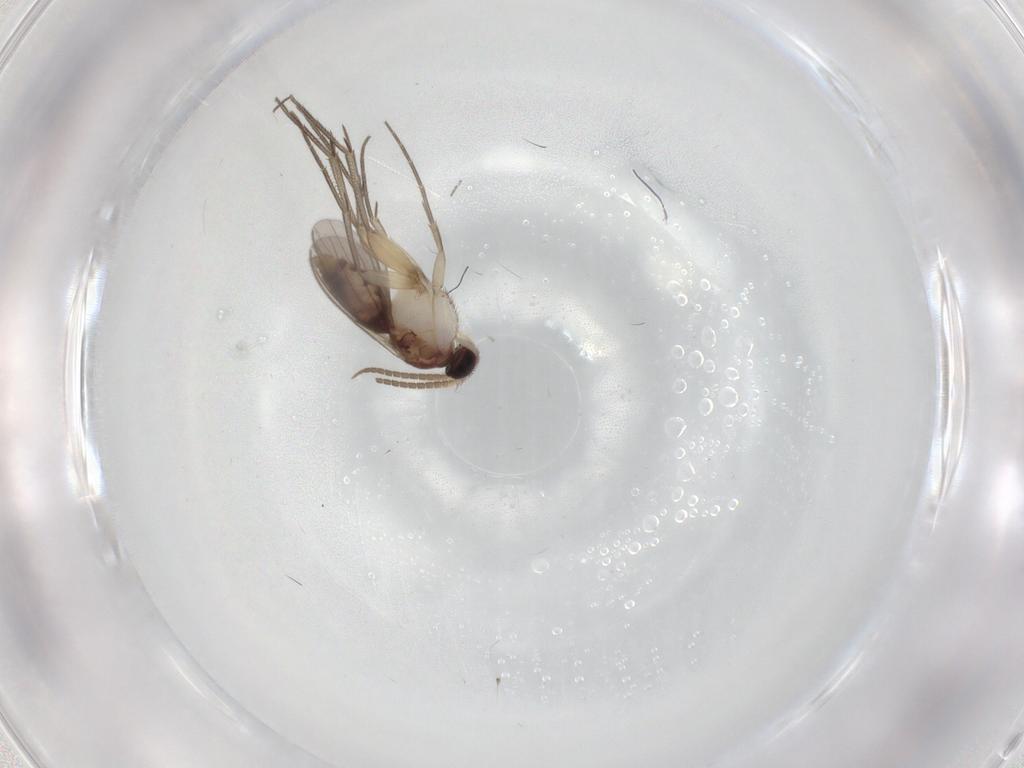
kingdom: Animalia
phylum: Arthropoda
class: Insecta
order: Diptera
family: Mycetophilidae
